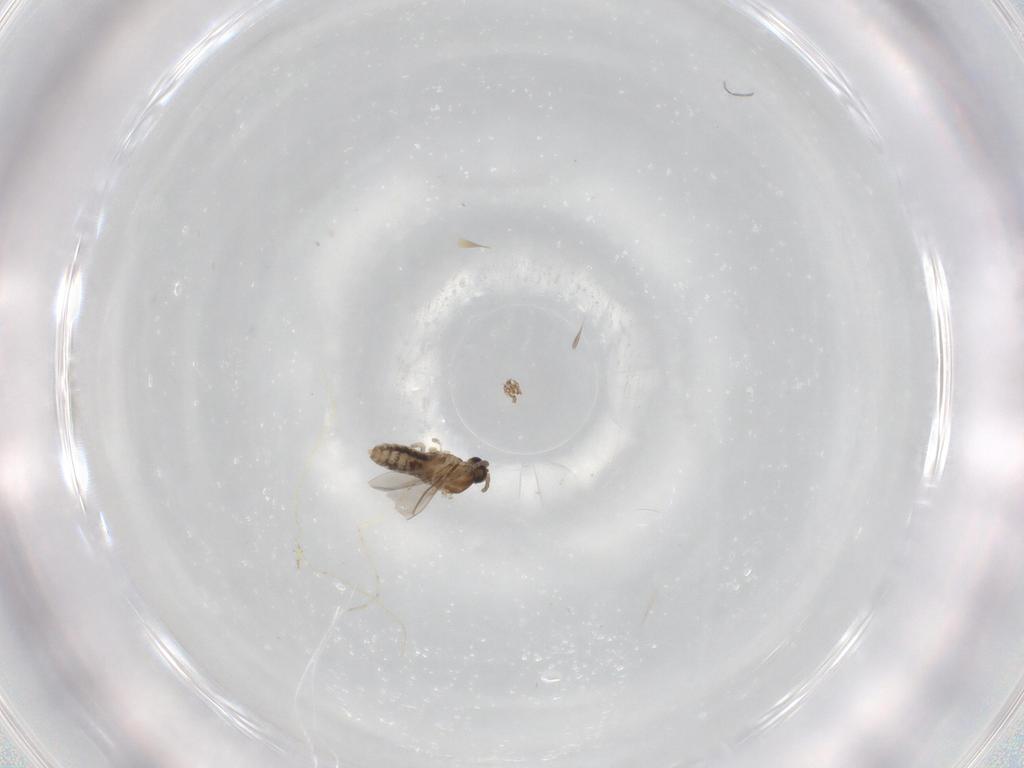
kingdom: Animalia
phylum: Arthropoda
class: Insecta
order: Diptera
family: Cecidomyiidae
